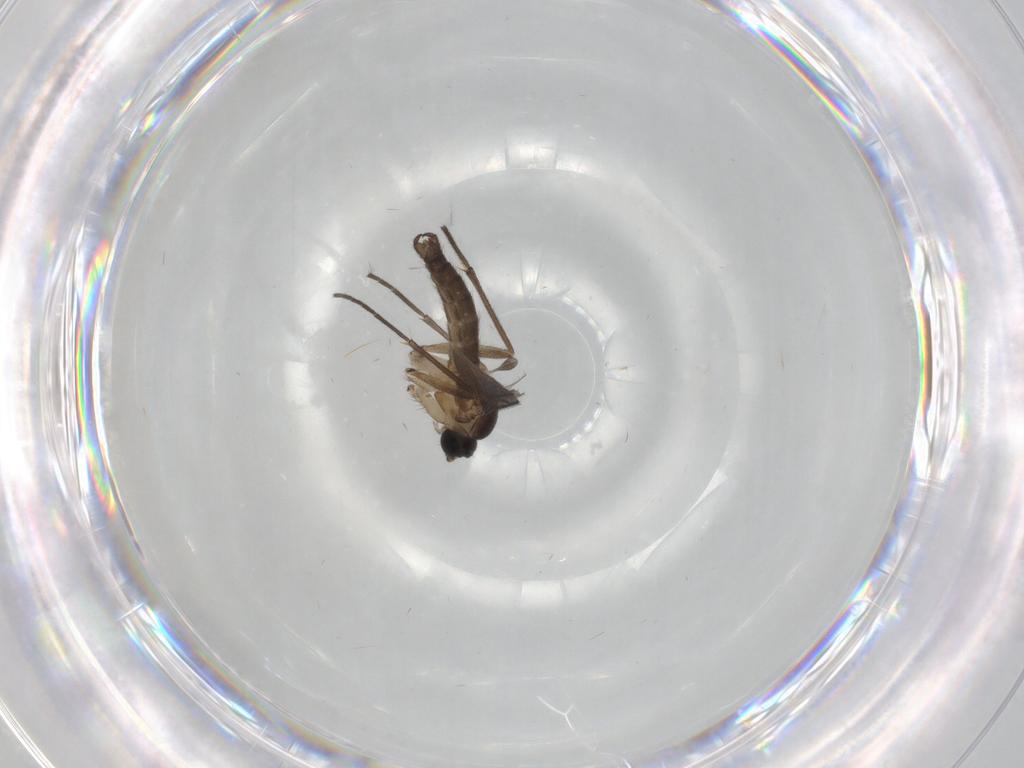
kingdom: Animalia
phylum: Arthropoda
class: Insecta
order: Diptera
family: Sciaridae
